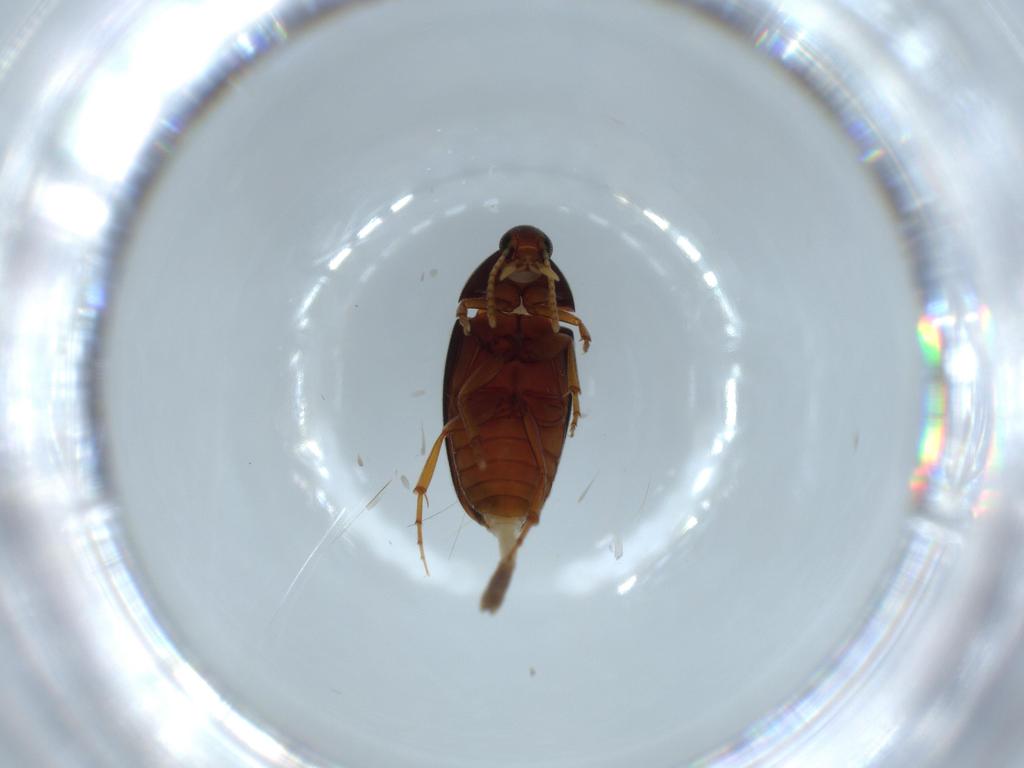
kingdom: Animalia
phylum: Arthropoda
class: Insecta
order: Coleoptera
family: Scraptiidae
